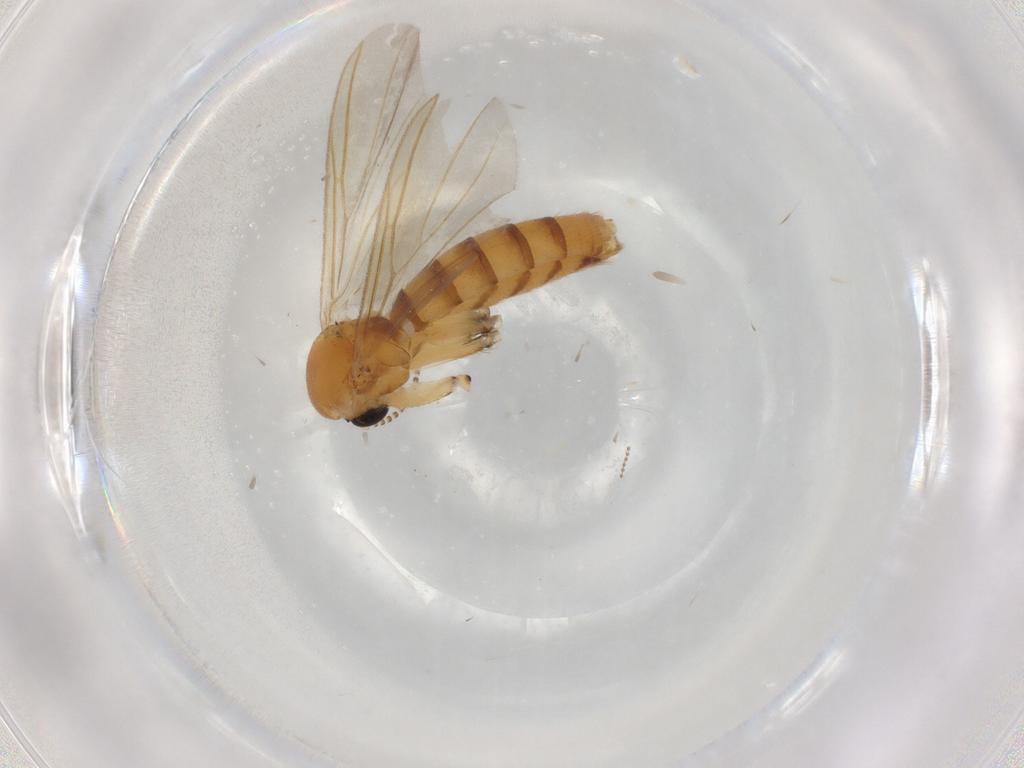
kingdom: Animalia
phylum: Arthropoda
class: Insecta
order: Diptera
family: Mycetophilidae
